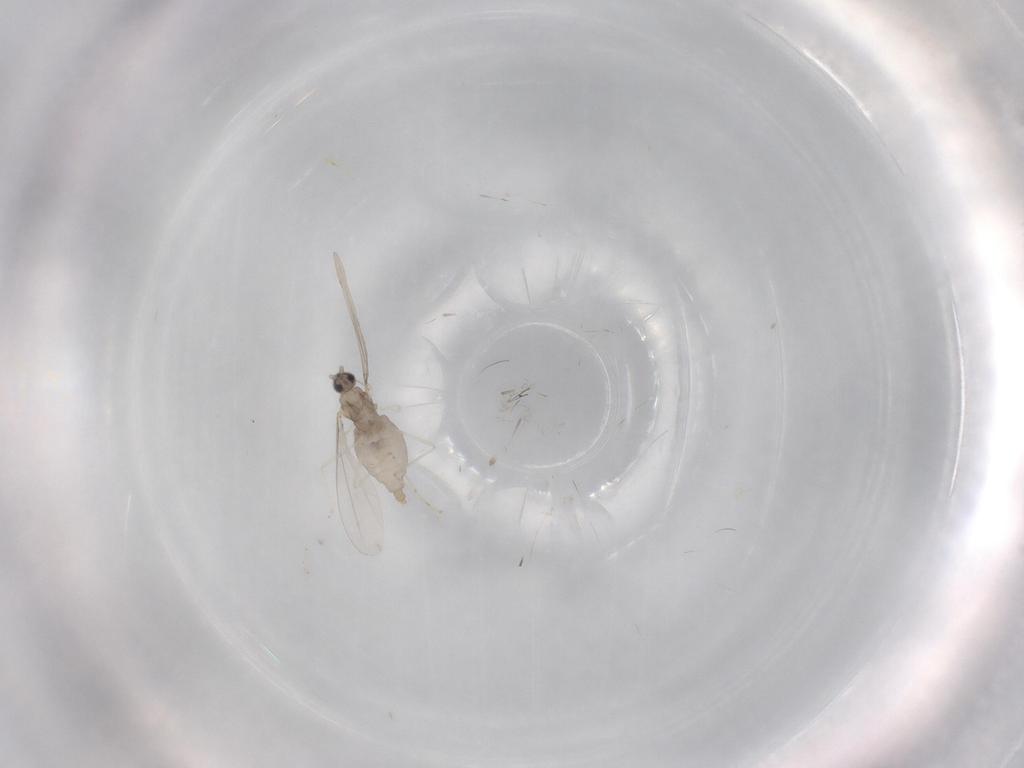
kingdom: Animalia
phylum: Arthropoda
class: Insecta
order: Diptera
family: Cecidomyiidae
